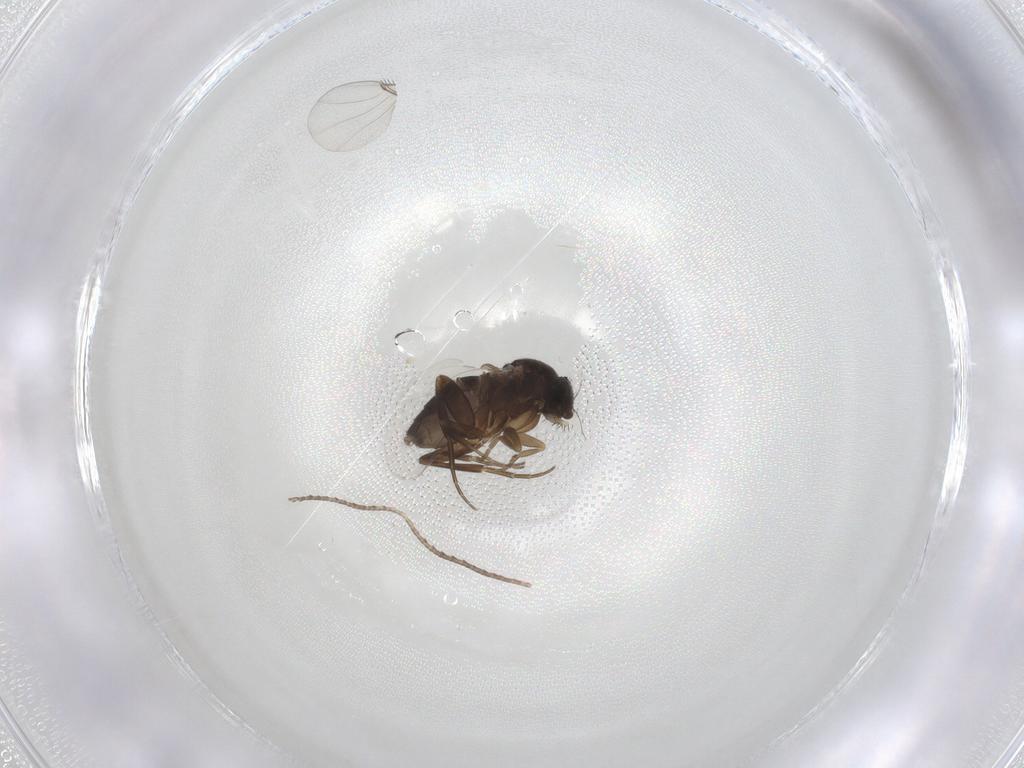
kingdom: Animalia
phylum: Arthropoda
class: Insecta
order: Diptera
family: Phoridae
